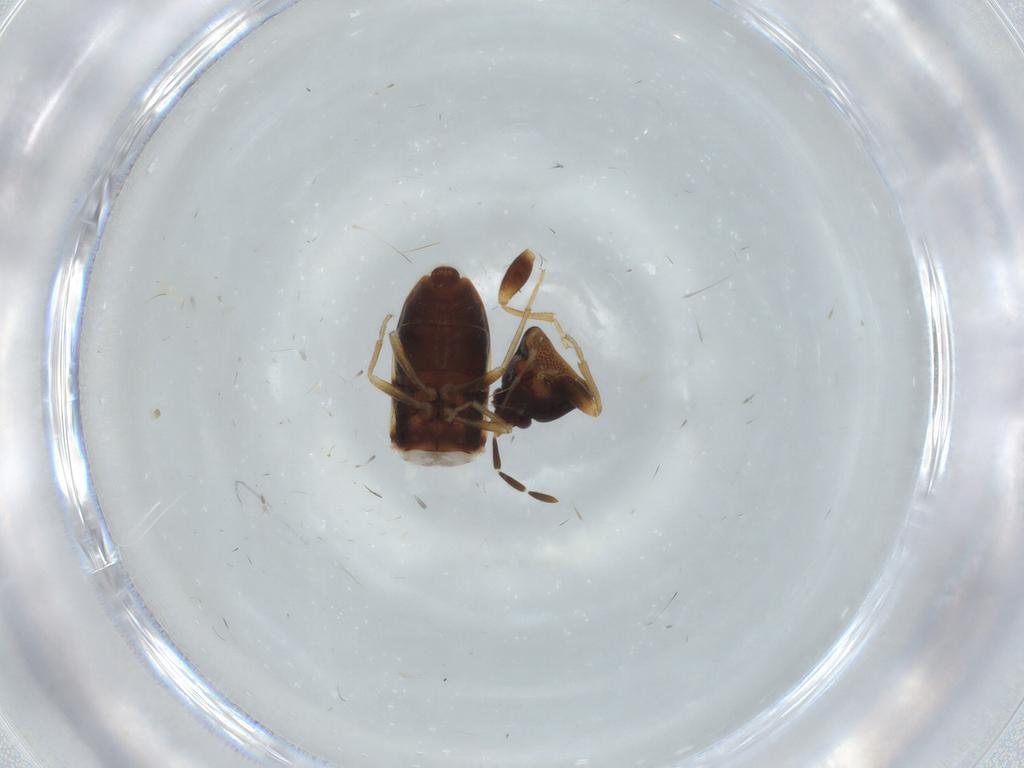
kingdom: Animalia
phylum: Arthropoda
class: Insecta
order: Hemiptera
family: Rhyparochromidae
